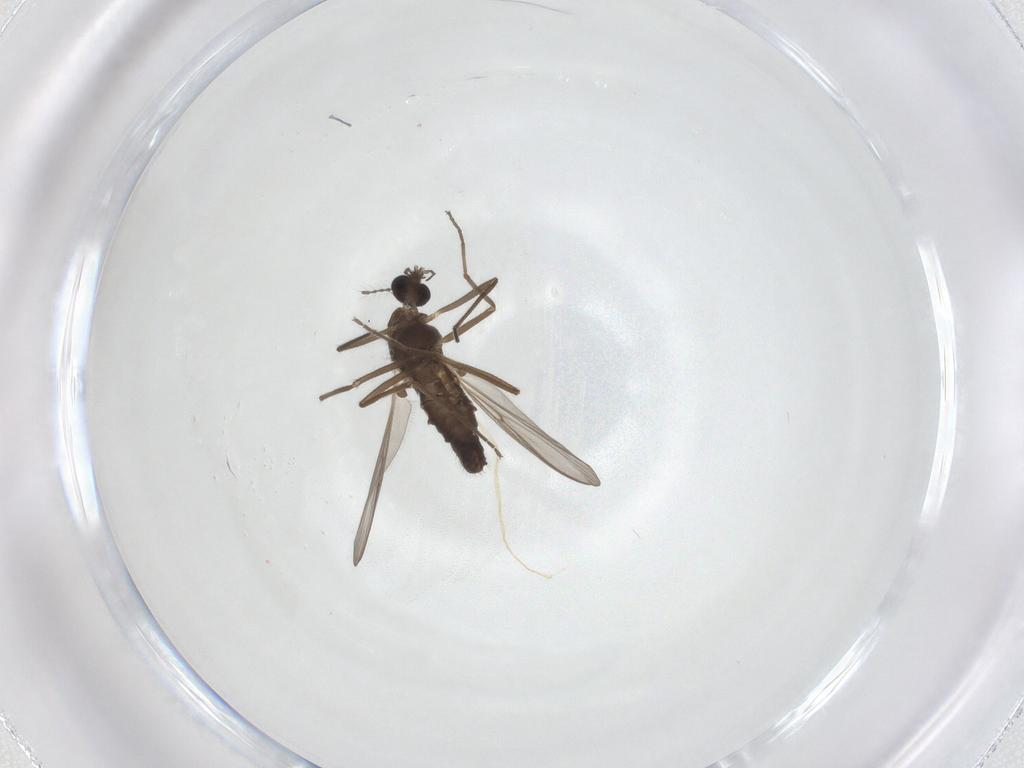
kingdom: Animalia
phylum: Arthropoda
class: Insecta
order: Diptera
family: Chironomidae
